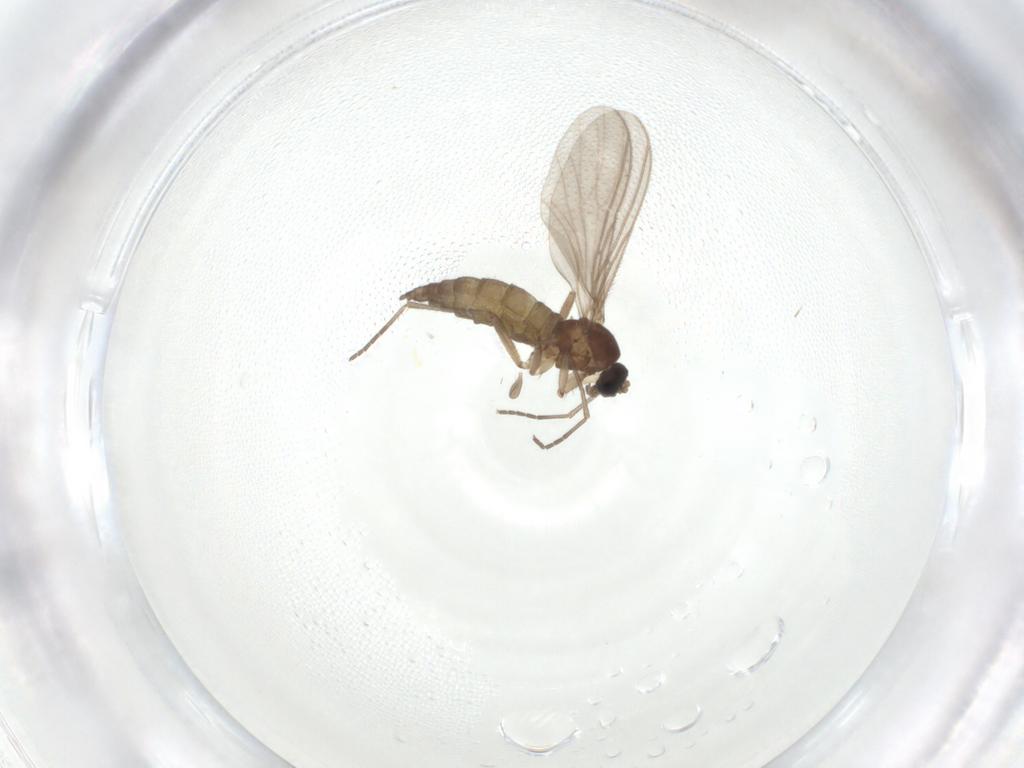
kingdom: Animalia
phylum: Arthropoda
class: Insecta
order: Diptera
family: Sciaridae
